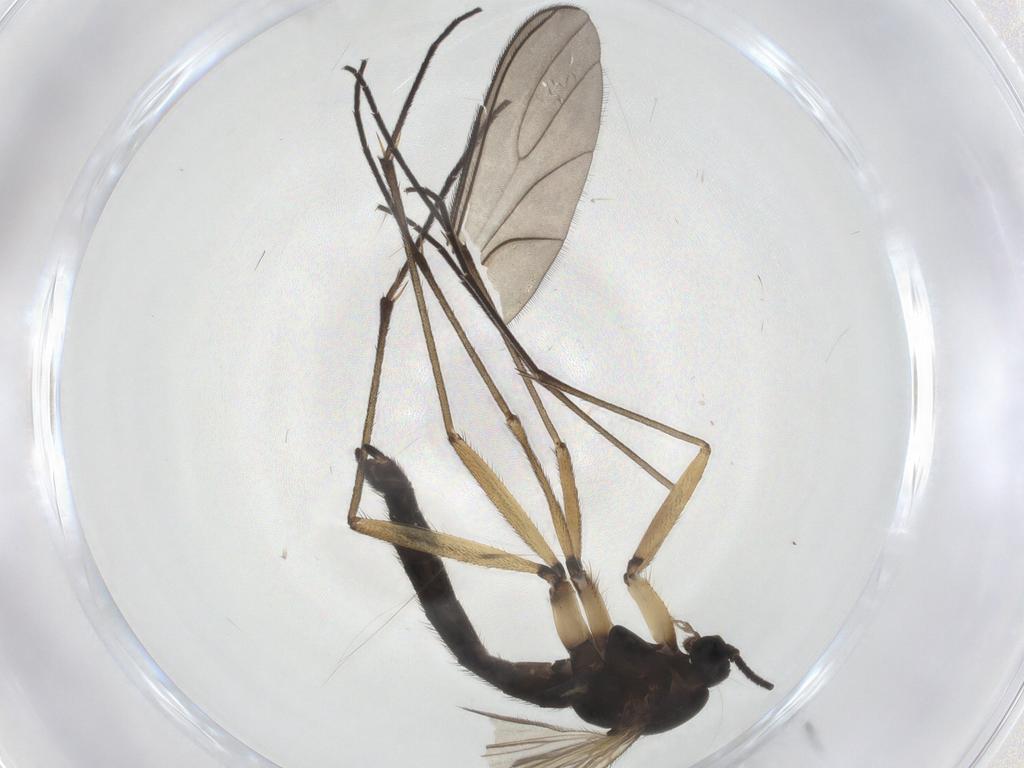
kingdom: Animalia
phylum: Arthropoda
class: Insecta
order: Diptera
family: Sciaridae
